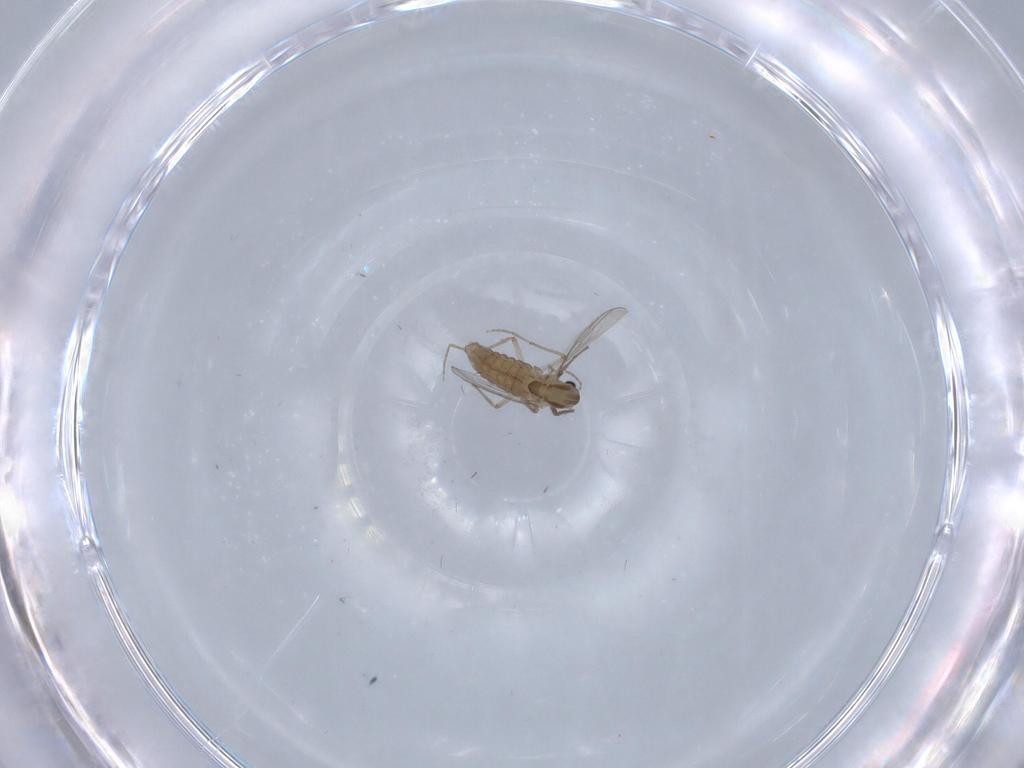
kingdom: Animalia
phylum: Arthropoda
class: Insecta
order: Diptera
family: Chironomidae
